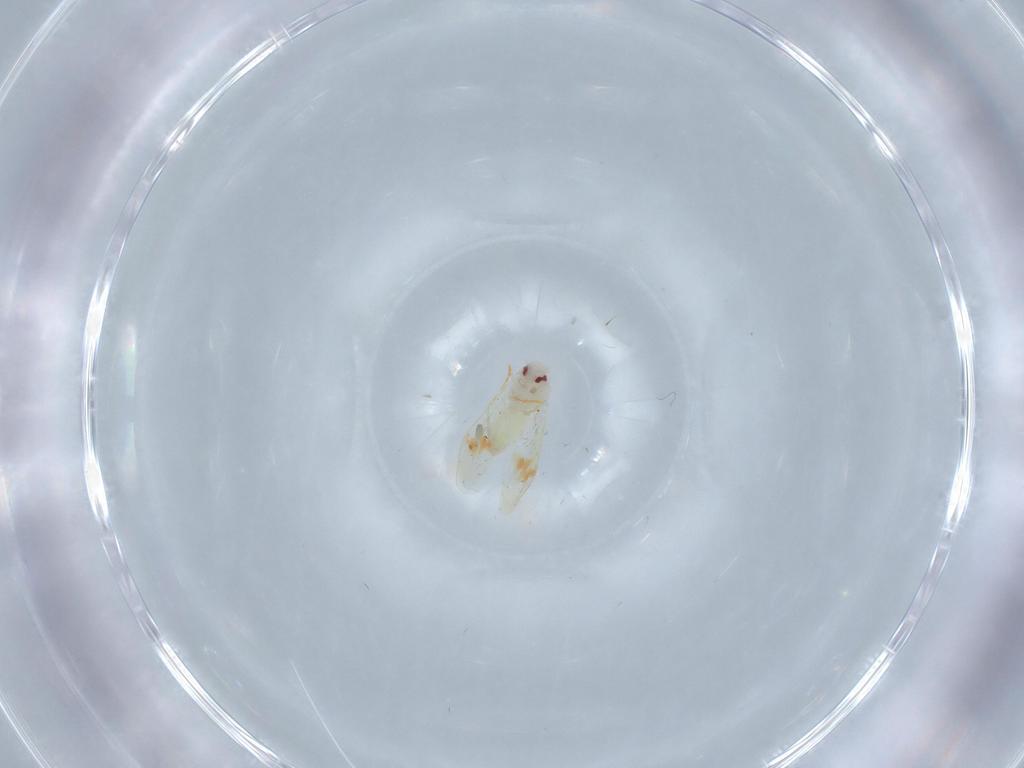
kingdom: Animalia
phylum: Arthropoda
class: Insecta
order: Hemiptera
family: Aleyrodidae
